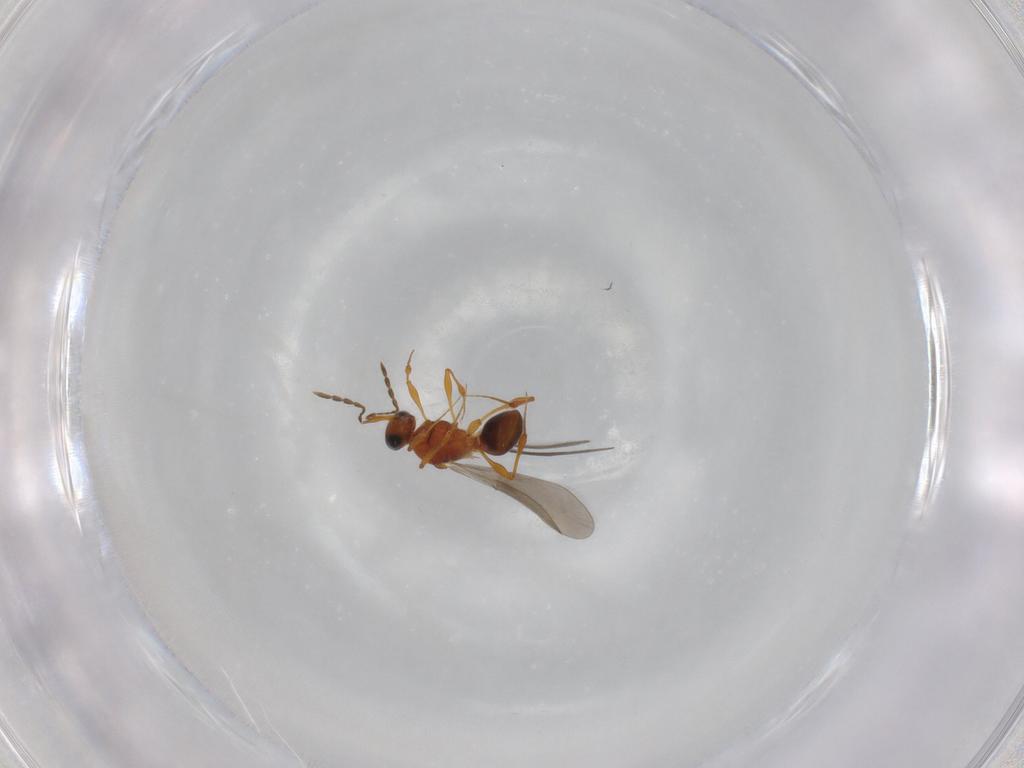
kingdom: Animalia
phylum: Arthropoda
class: Insecta
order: Hymenoptera
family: Platygastridae
